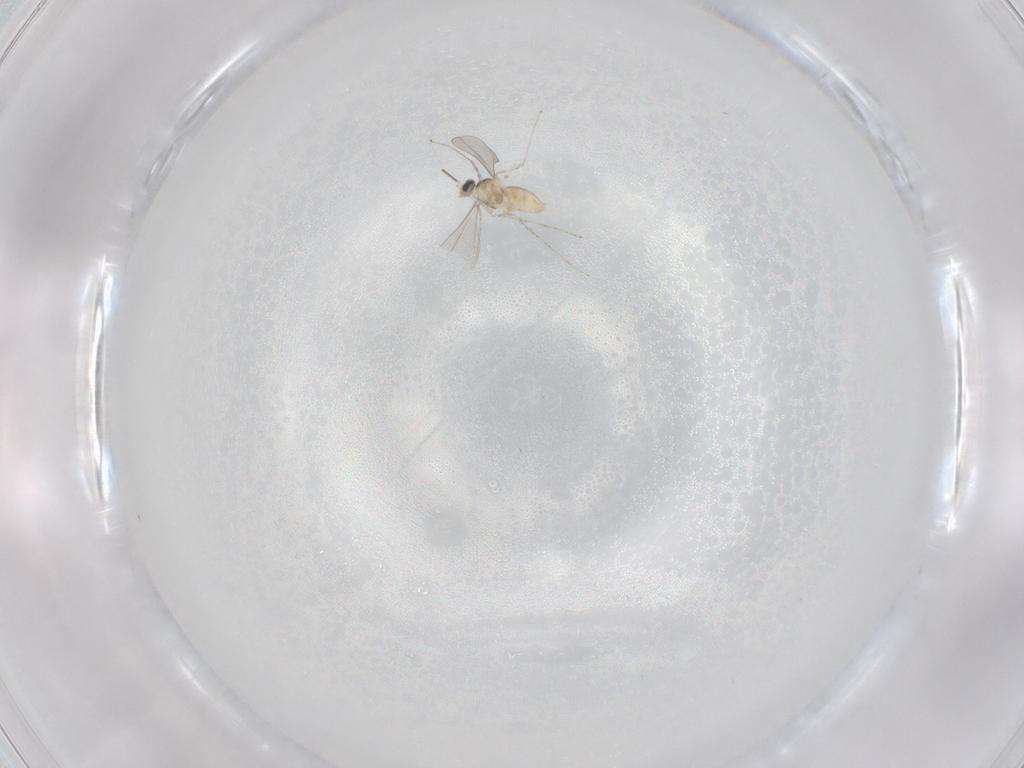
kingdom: Animalia
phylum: Arthropoda
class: Insecta
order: Diptera
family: Cecidomyiidae
